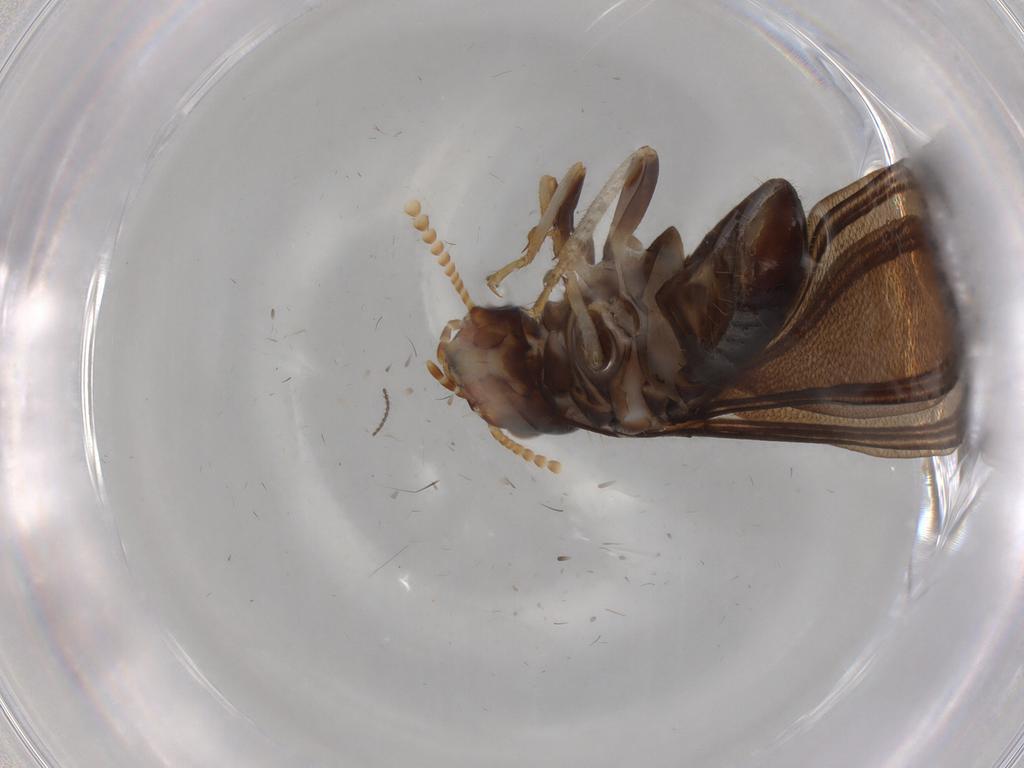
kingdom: Animalia
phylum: Arthropoda
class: Insecta
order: Blattodea
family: Kalotermitidae
